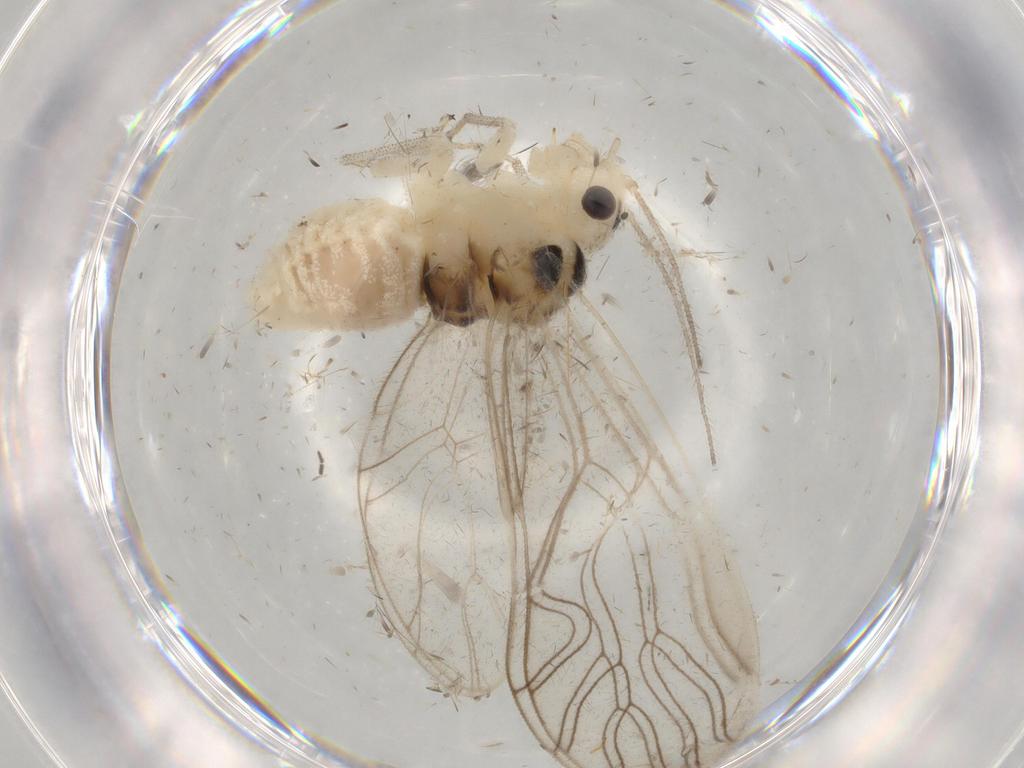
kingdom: Animalia
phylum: Arthropoda
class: Insecta
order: Psocodea
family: Amphipsocidae
